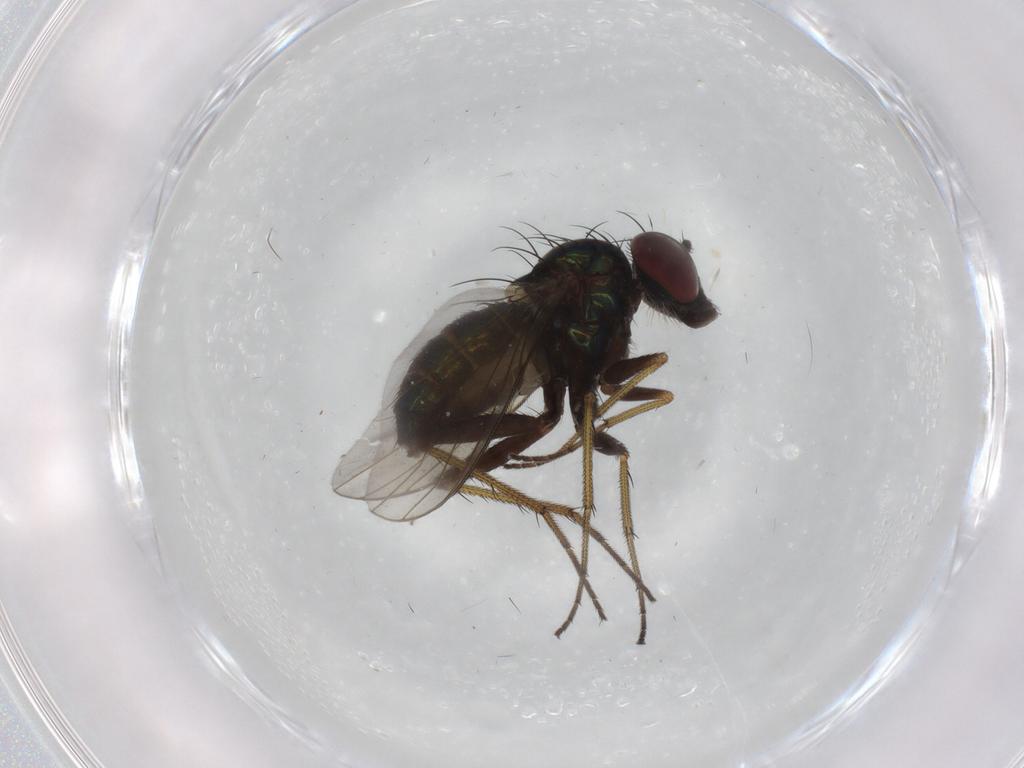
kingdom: Animalia
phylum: Arthropoda
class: Insecta
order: Diptera
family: Dolichopodidae
